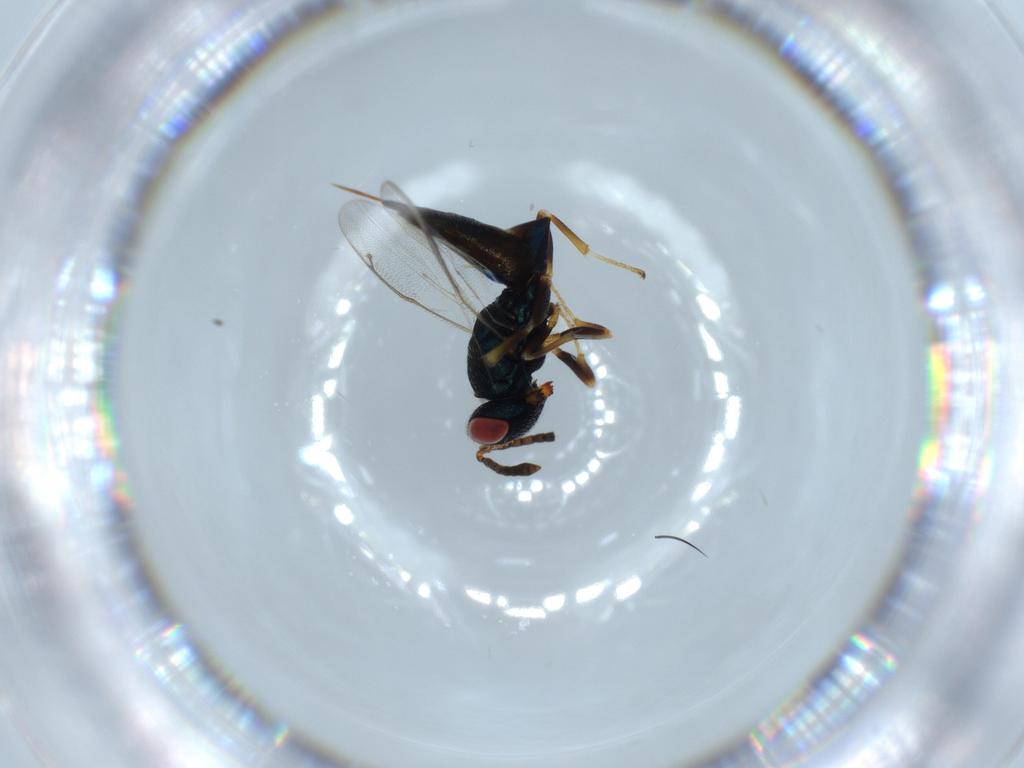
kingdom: Animalia
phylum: Arthropoda
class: Insecta
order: Hymenoptera
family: Pteromalidae
